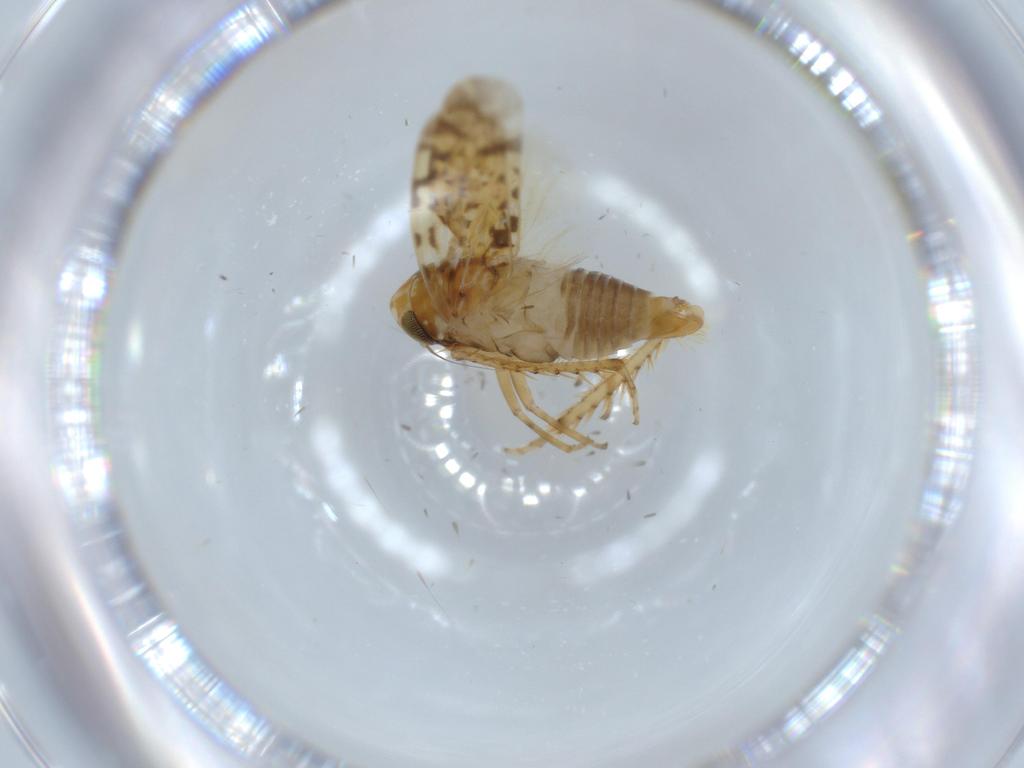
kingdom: Animalia
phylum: Arthropoda
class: Insecta
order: Hemiptera
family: Cicadellidae
